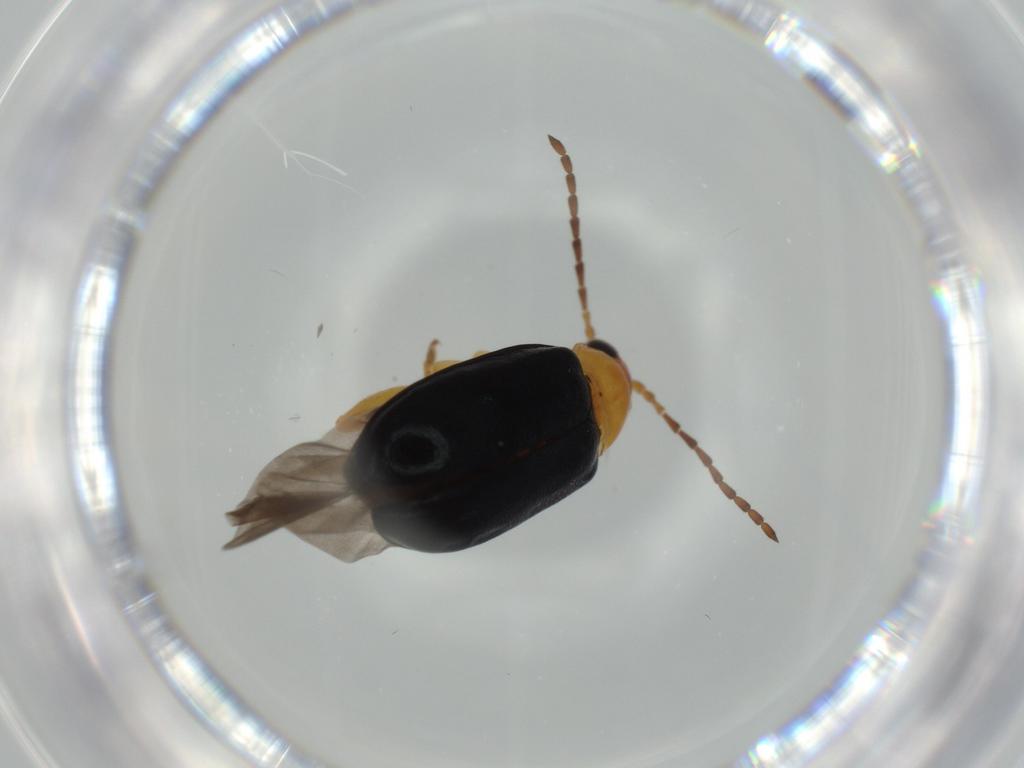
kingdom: Animalia
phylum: Arthropoda
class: Insecta
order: Coleoptera
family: Chrysomelidae
